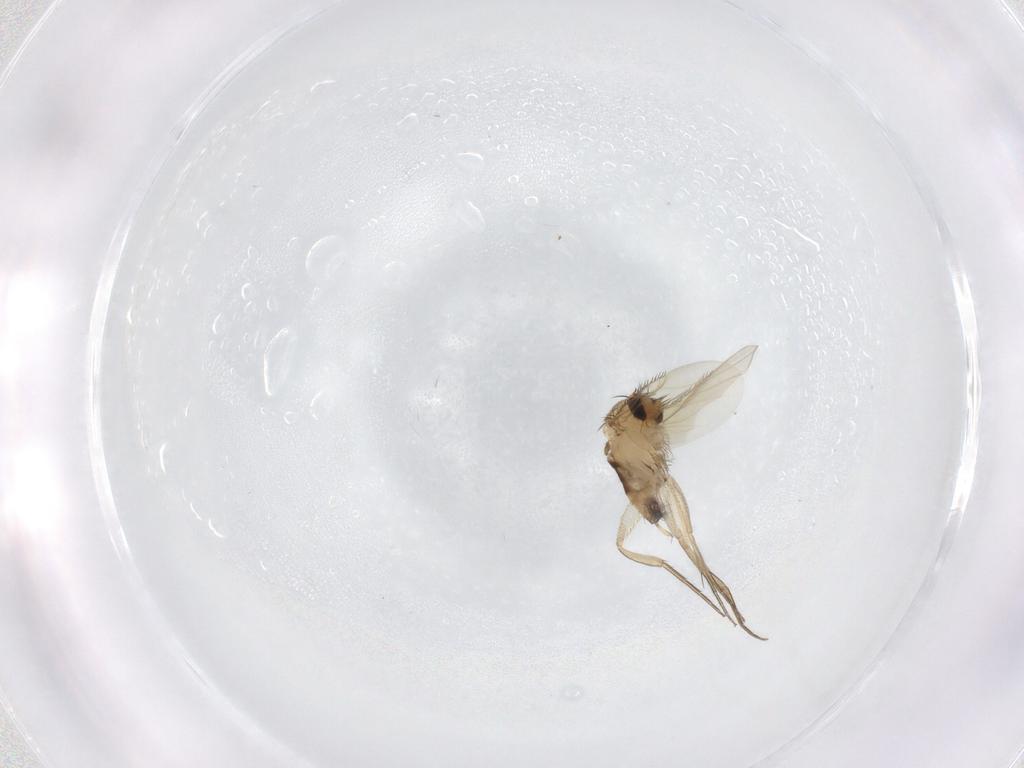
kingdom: Animalia
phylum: Arthropoda
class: Insecta
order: Diptera
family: Phoridae
